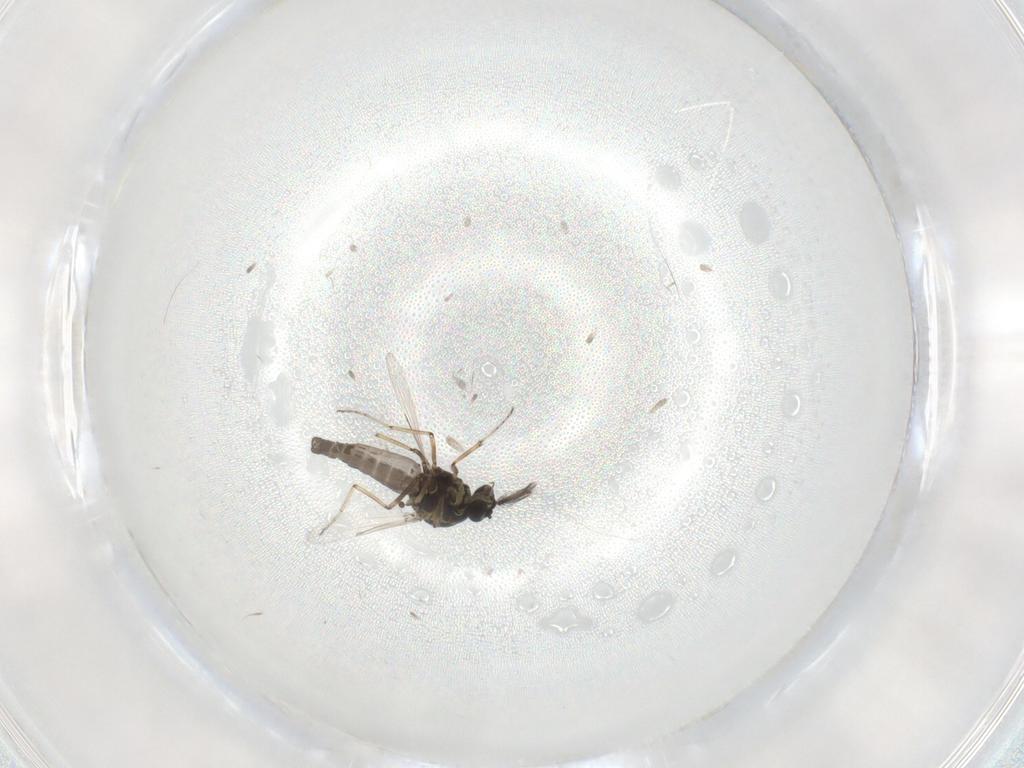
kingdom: Animalia
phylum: Arthropoda
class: Insecta
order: Diptera
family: Ceratopogonidae
